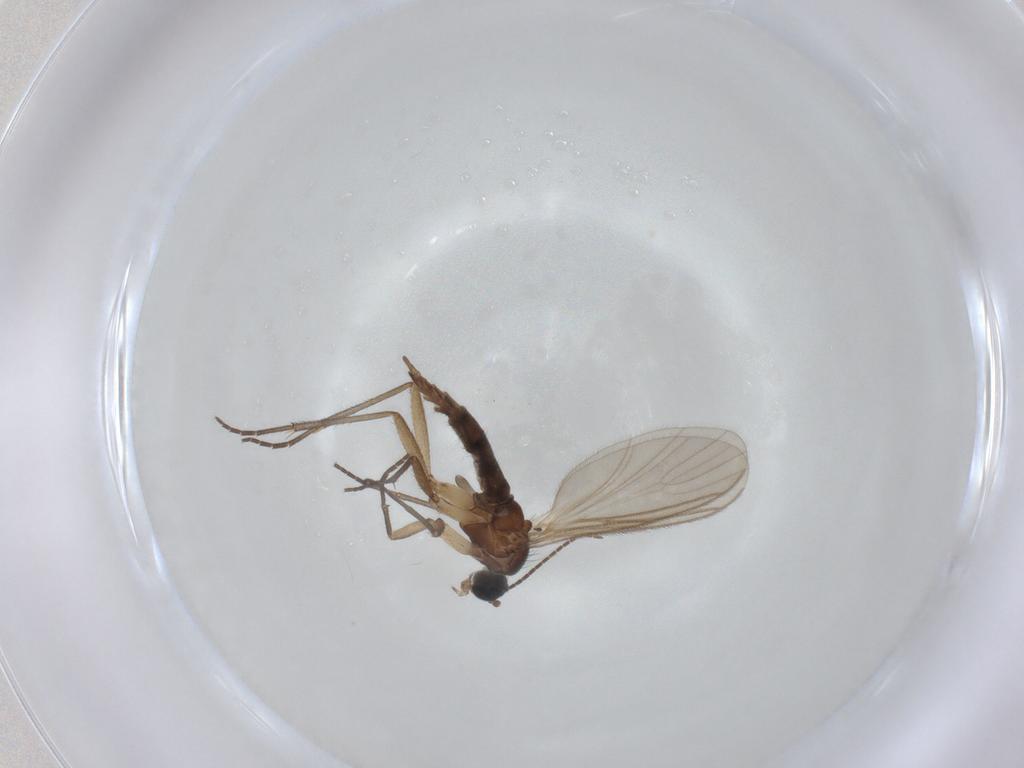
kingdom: Animalia
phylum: Arthropoda
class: Insecta
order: Diptera
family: Sciaridae
